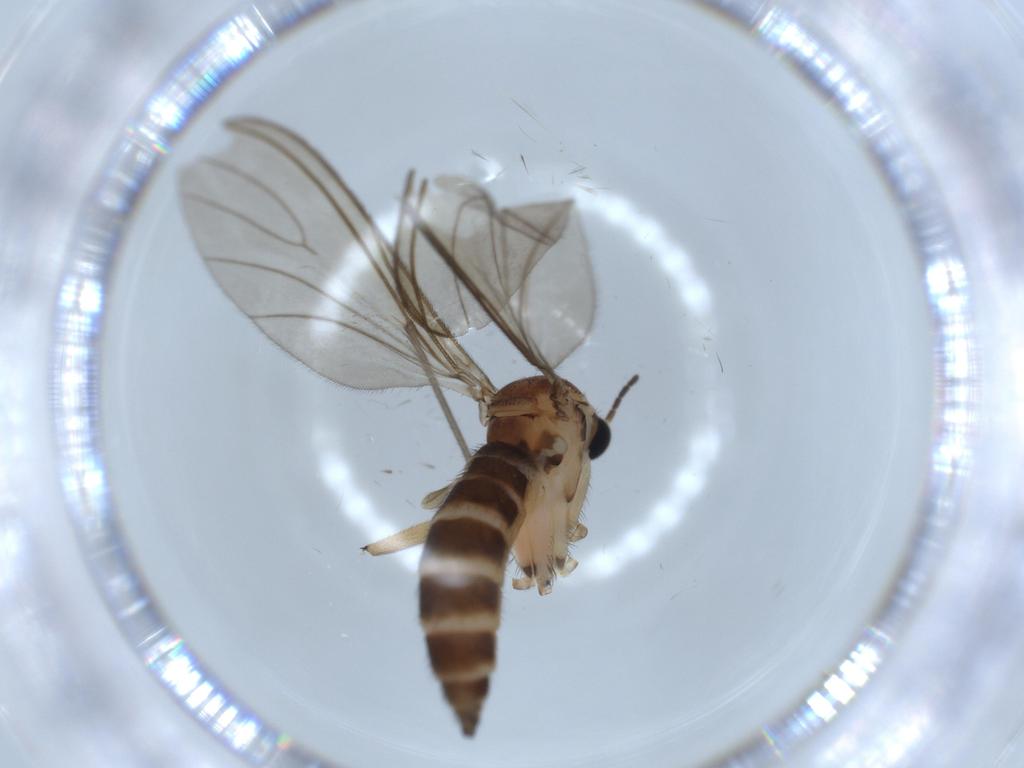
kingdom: Animalia
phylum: Arthropoda
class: Insecta
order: Diptera
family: Sciaridae
